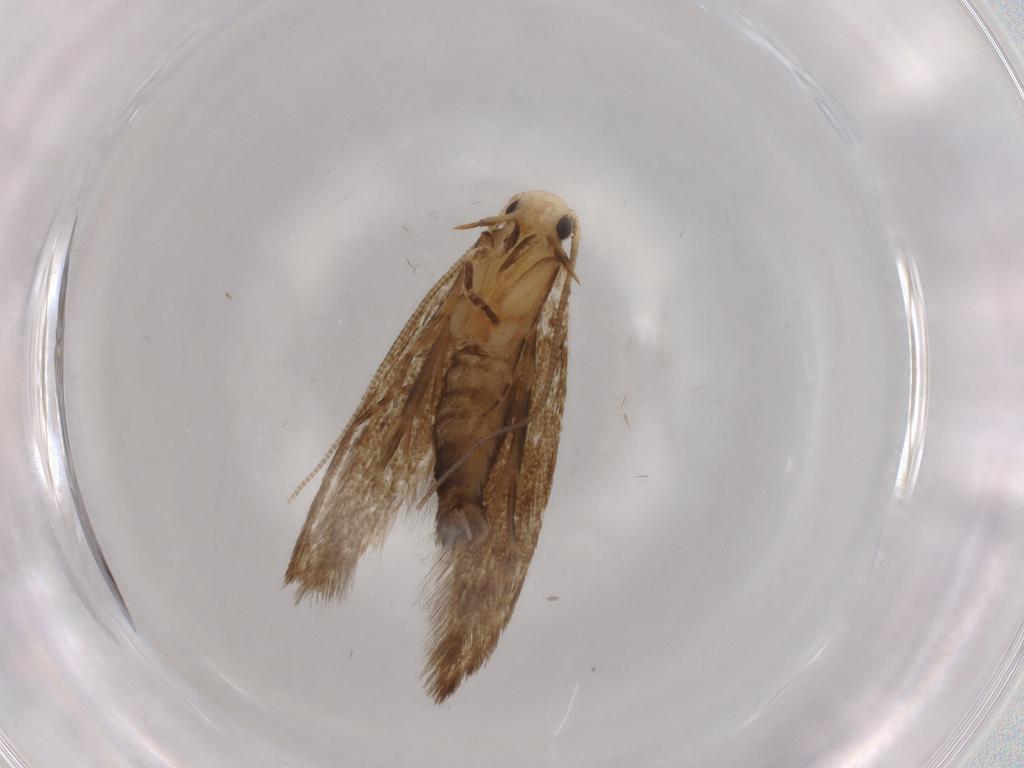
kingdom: Animalia
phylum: Arthropoda
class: Insecta
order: Lepidoptera
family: Tineidae
